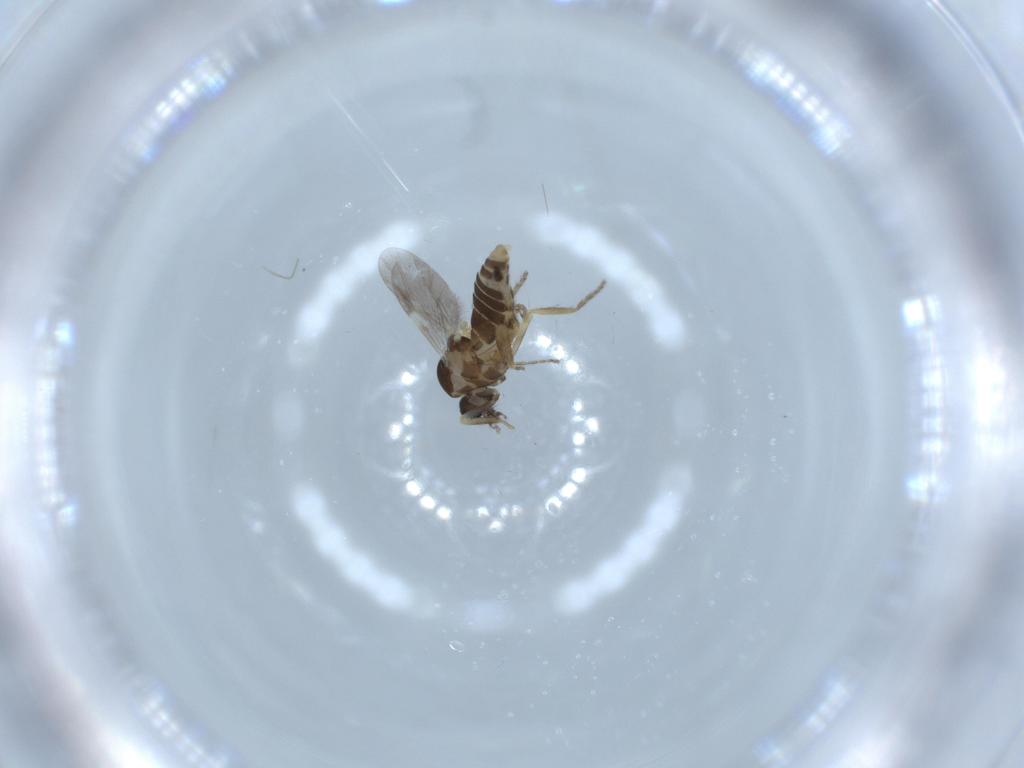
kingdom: Animalia
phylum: Arthropoda
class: Insecta
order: Diptera
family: Ceratopogonidae
